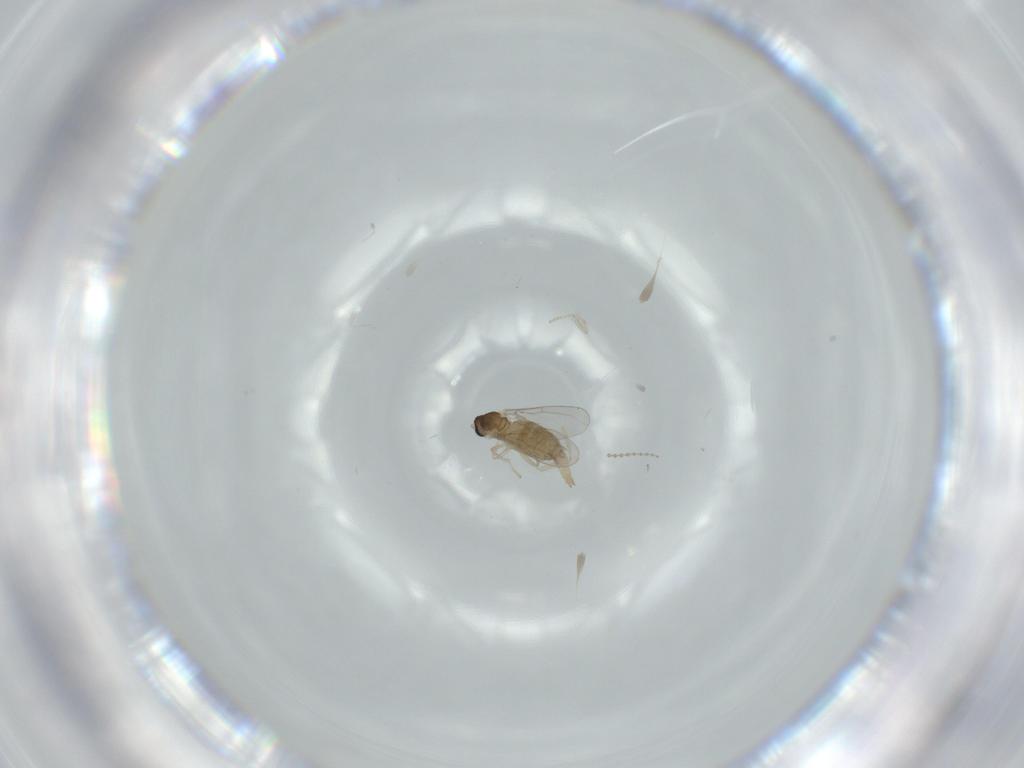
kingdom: Animalia
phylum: Arthropoda
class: Insecta
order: Diptera
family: Cecidomyiidae
